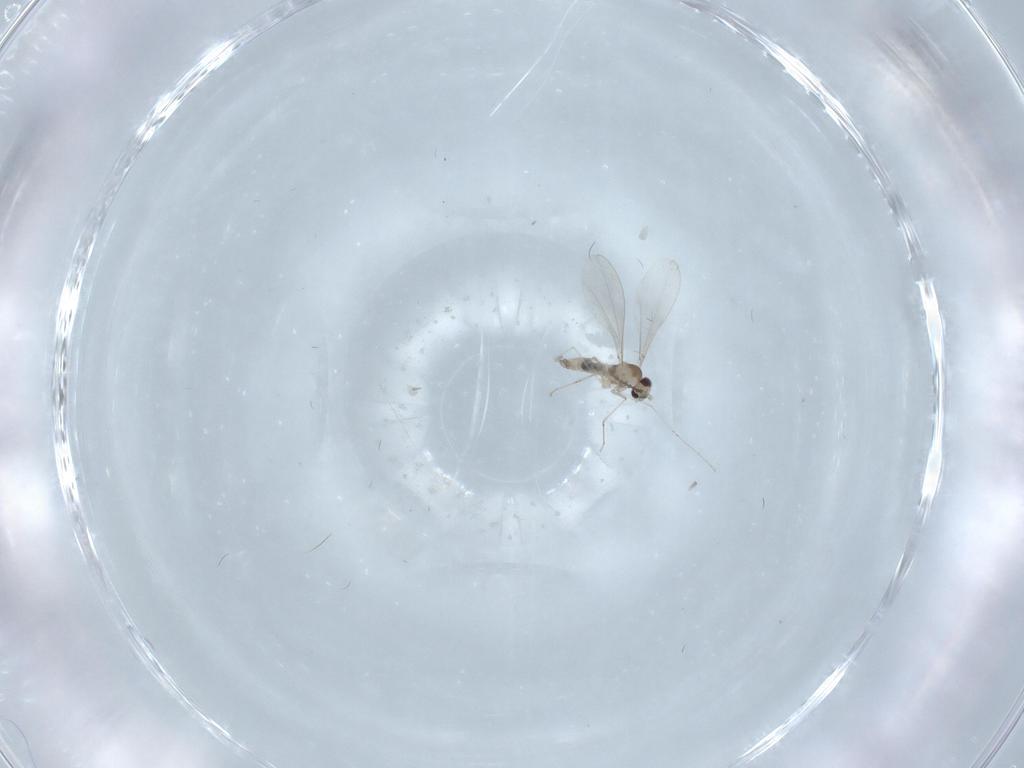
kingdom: Animalia
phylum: Arthropoda
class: Insecta
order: Diptera
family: Cecidomyiidae
